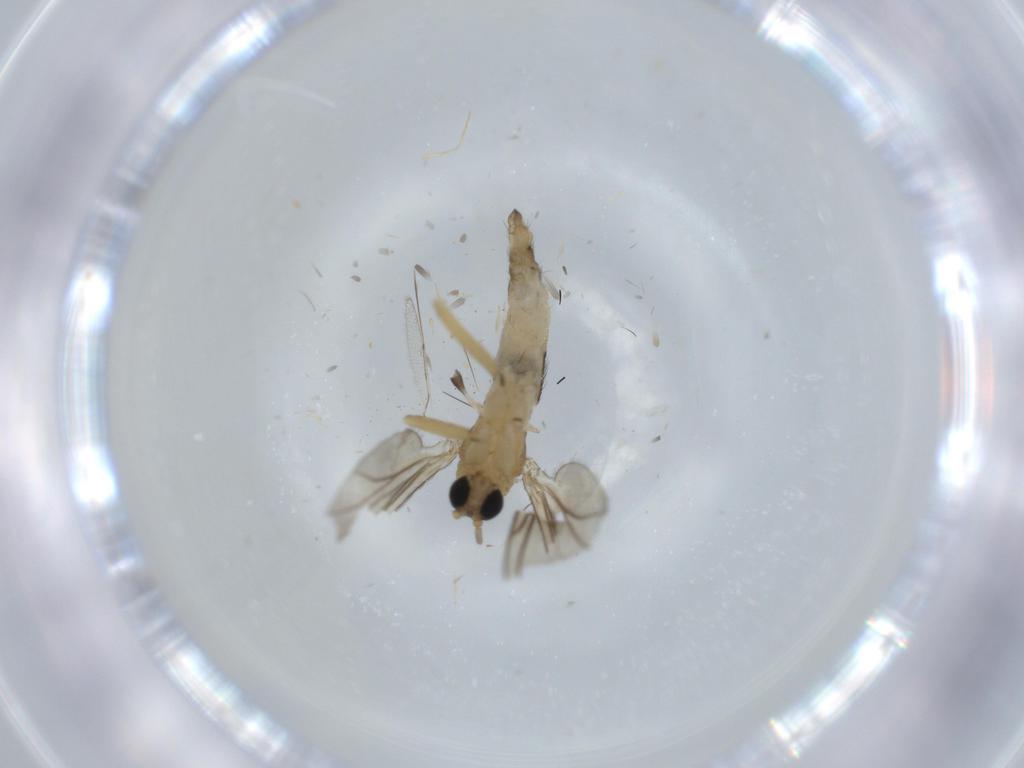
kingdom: Animalia
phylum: Arthropoda
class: Insecta
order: Diptera
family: Sciaridae
